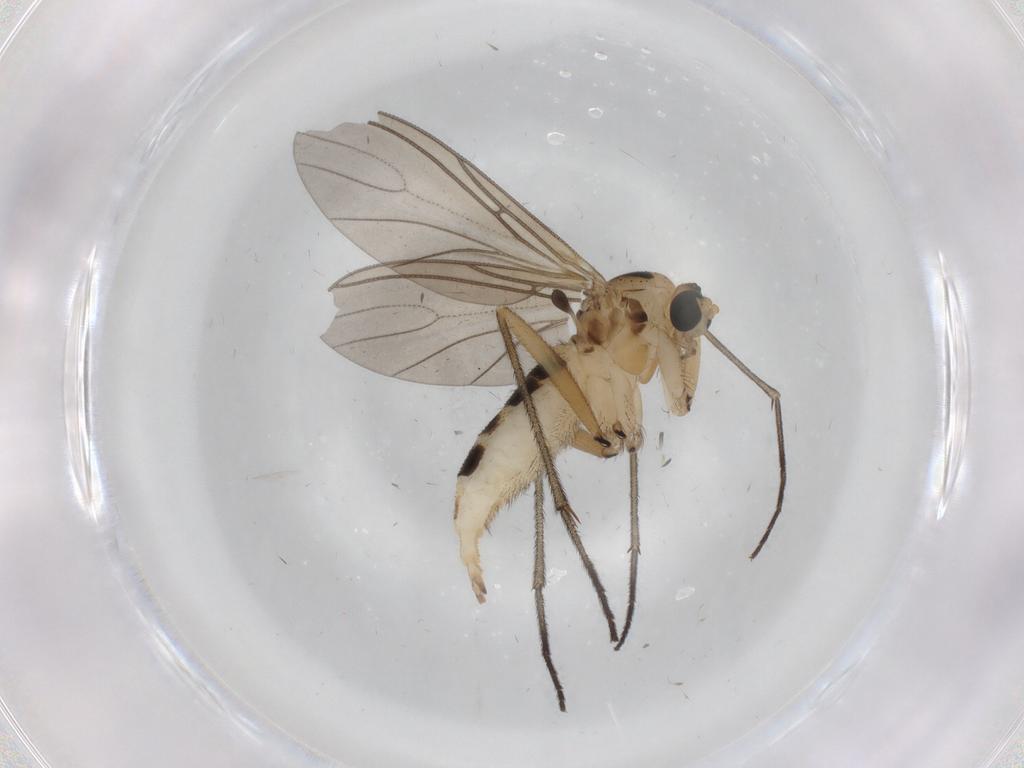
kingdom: Animalia
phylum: Arthropoda
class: Insecta
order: Diptera
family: Sciaridae
